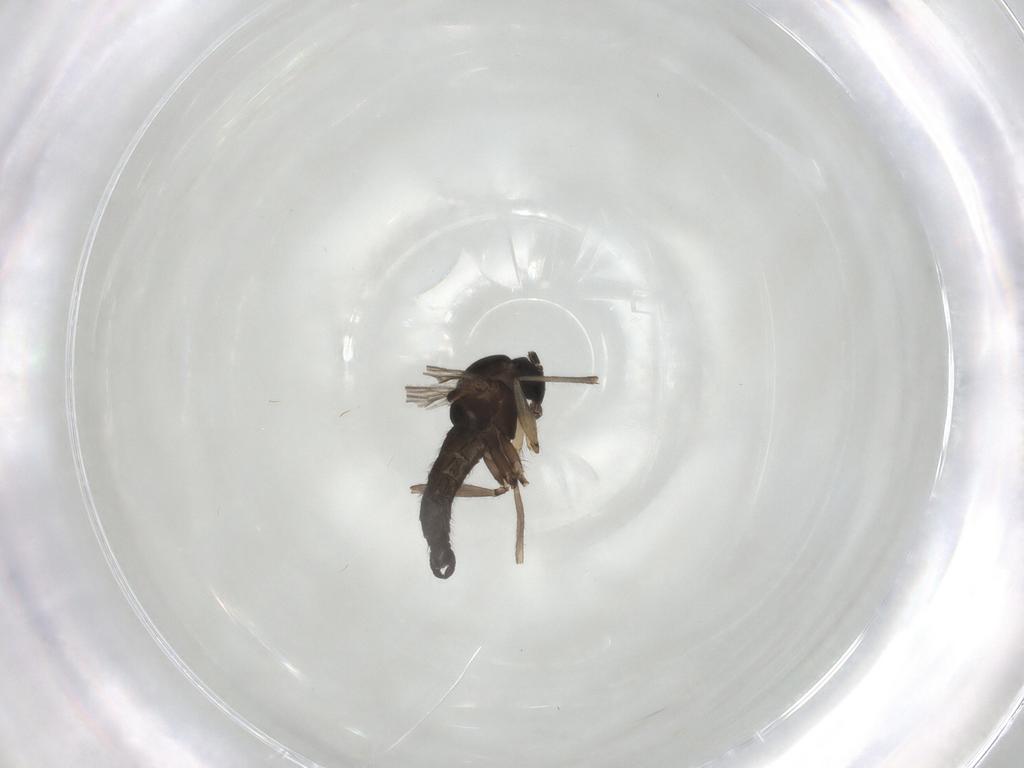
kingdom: Animalia
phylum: Arthropoda
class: Insecta
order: Diptera
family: Sciaridae
